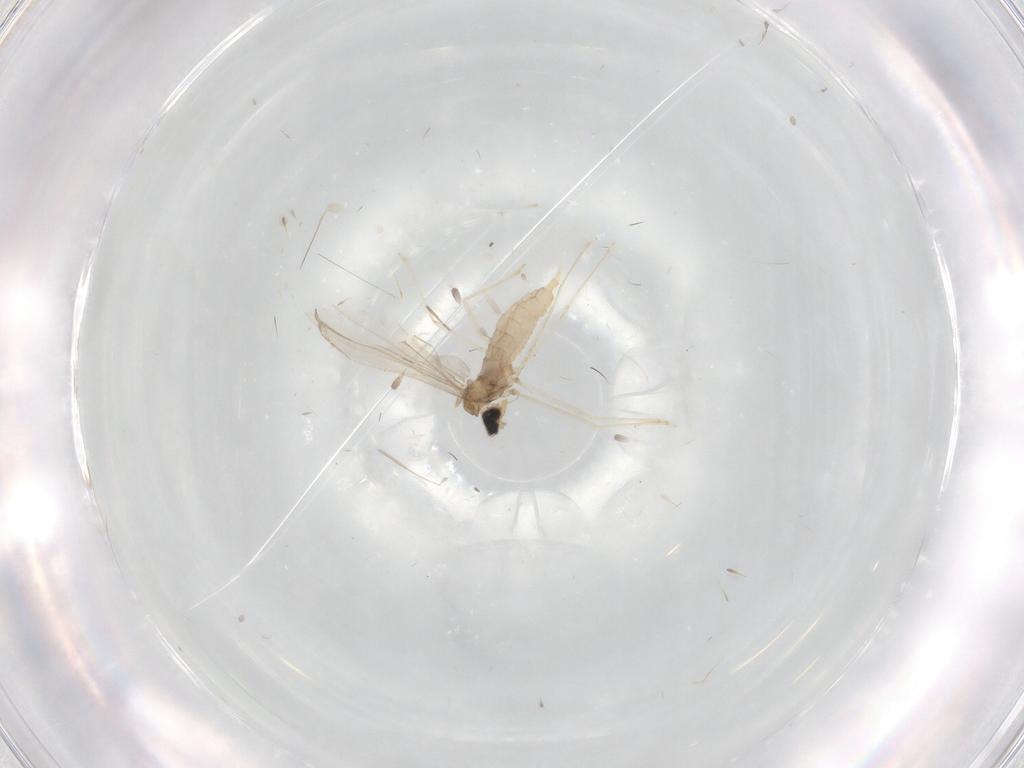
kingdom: Animalia
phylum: Arthropoda
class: Insecta
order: Diptera
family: Cecidomyiidae
